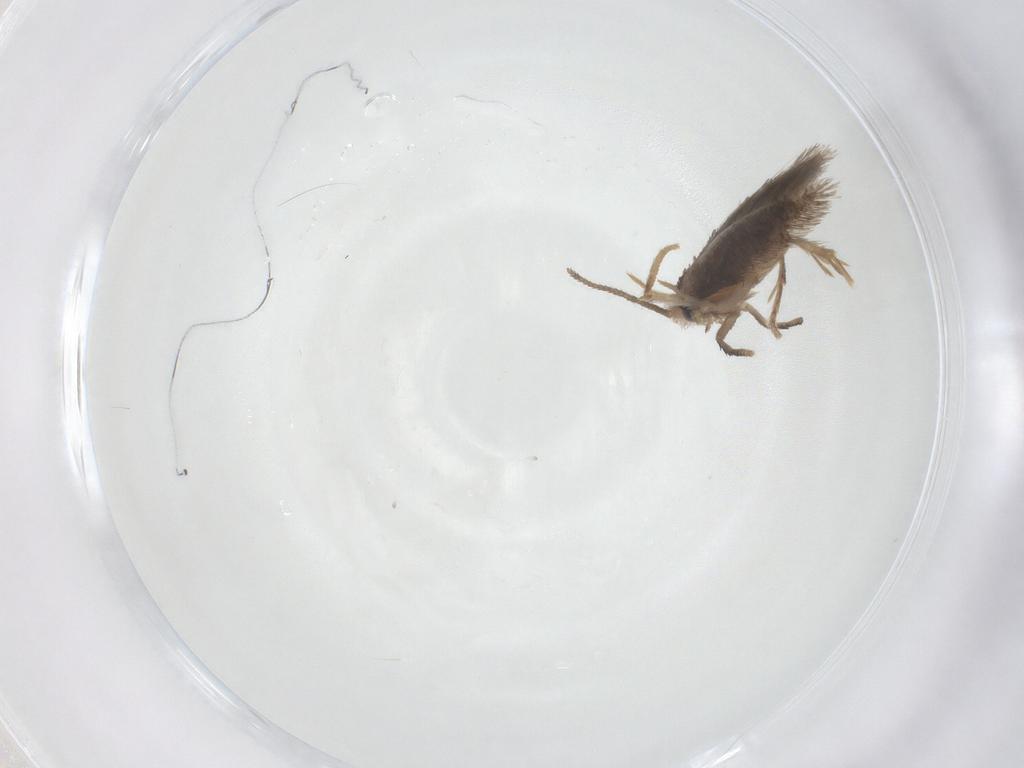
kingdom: Animalia
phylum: Arthropoda
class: Insecta
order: Lepidoptera
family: Nepticulidae
